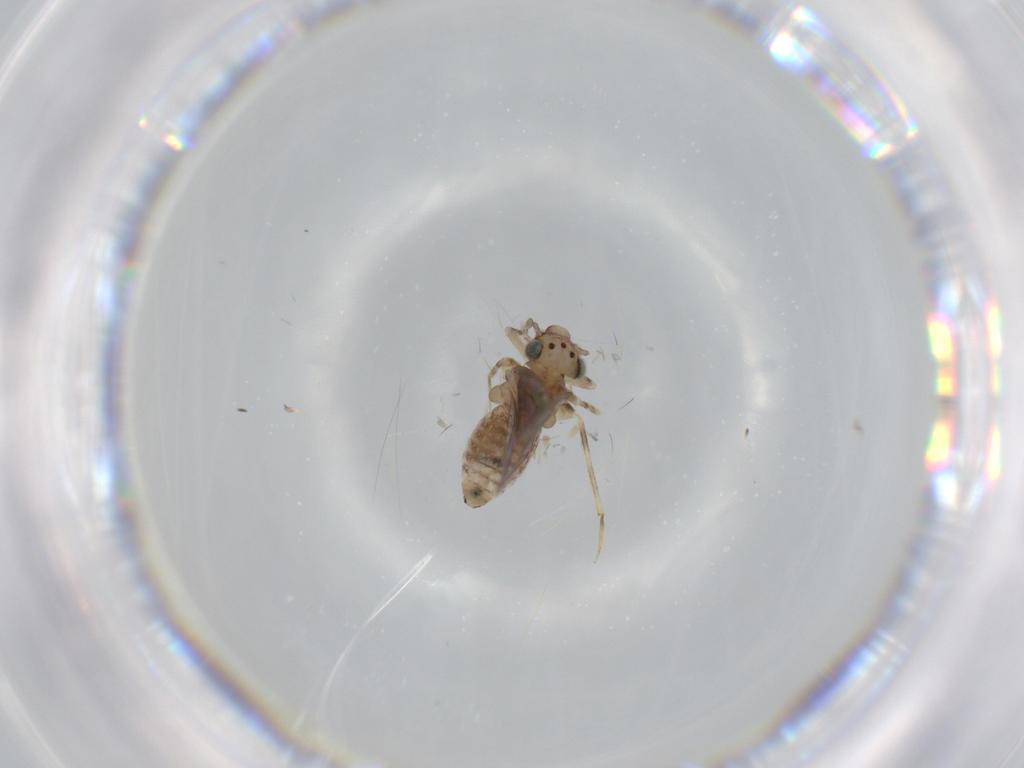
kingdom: Animalia
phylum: Arthropoda
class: Insecta
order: Psocodea
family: Lepidopsocidae
